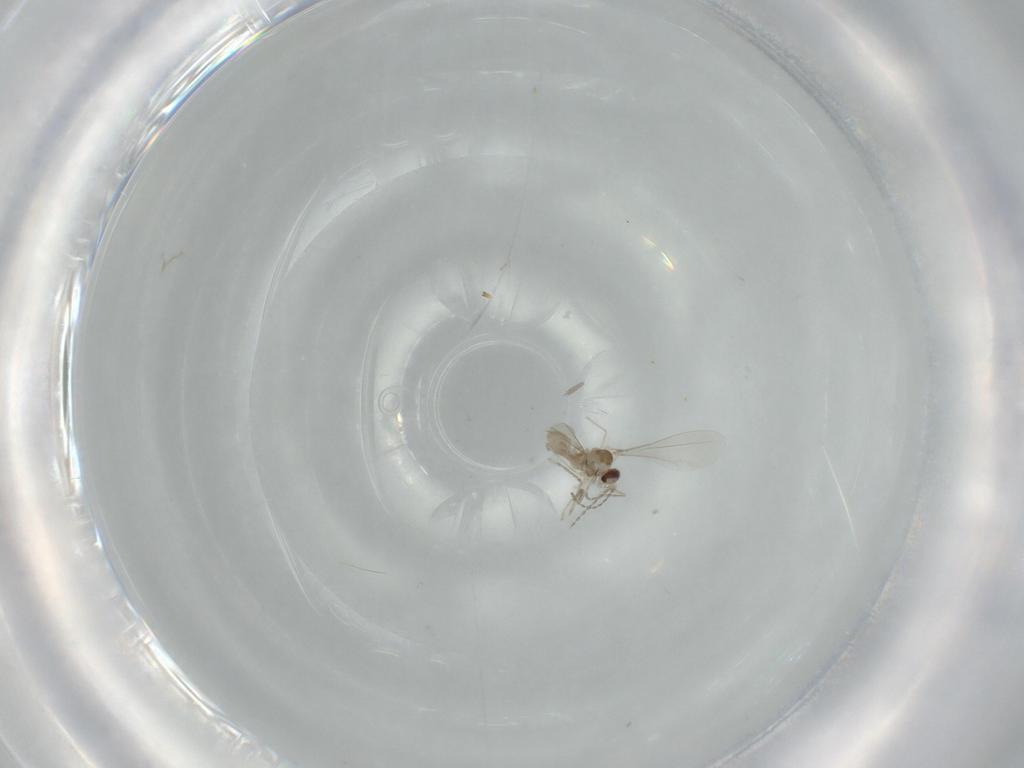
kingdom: Animalia
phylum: Arthropoda
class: Insecta
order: Diptera
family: Cecidomyiidae
